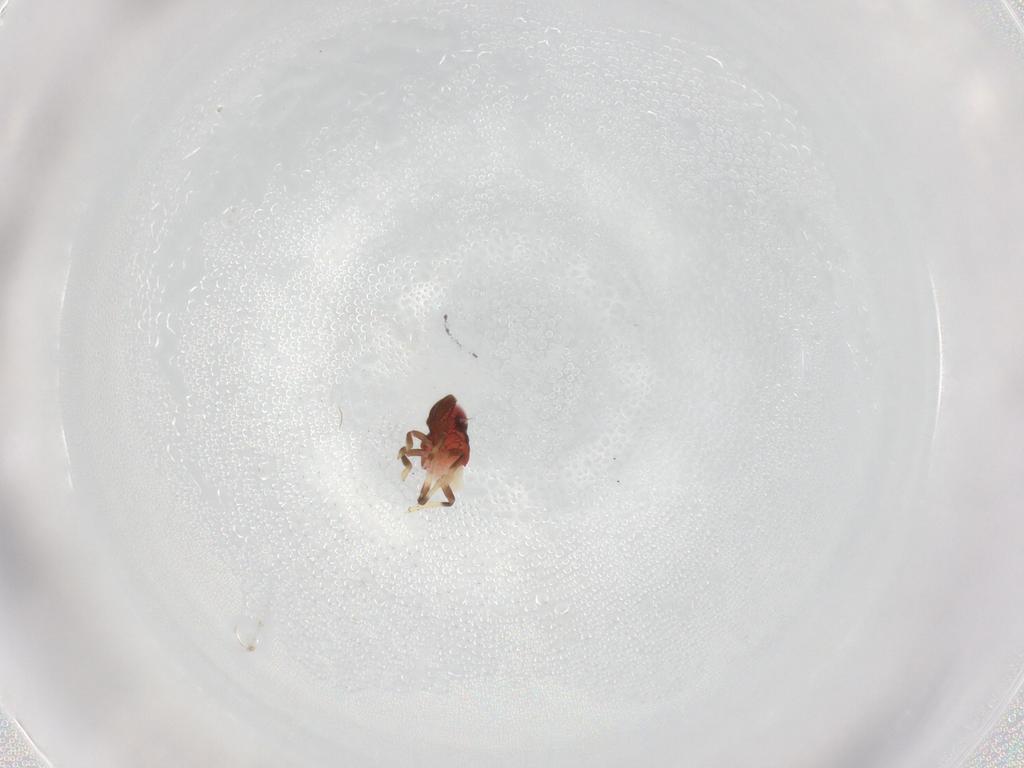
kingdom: Animalia
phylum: Arthropoda
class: Insecta
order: Hemiptera
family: Nogodinidae
